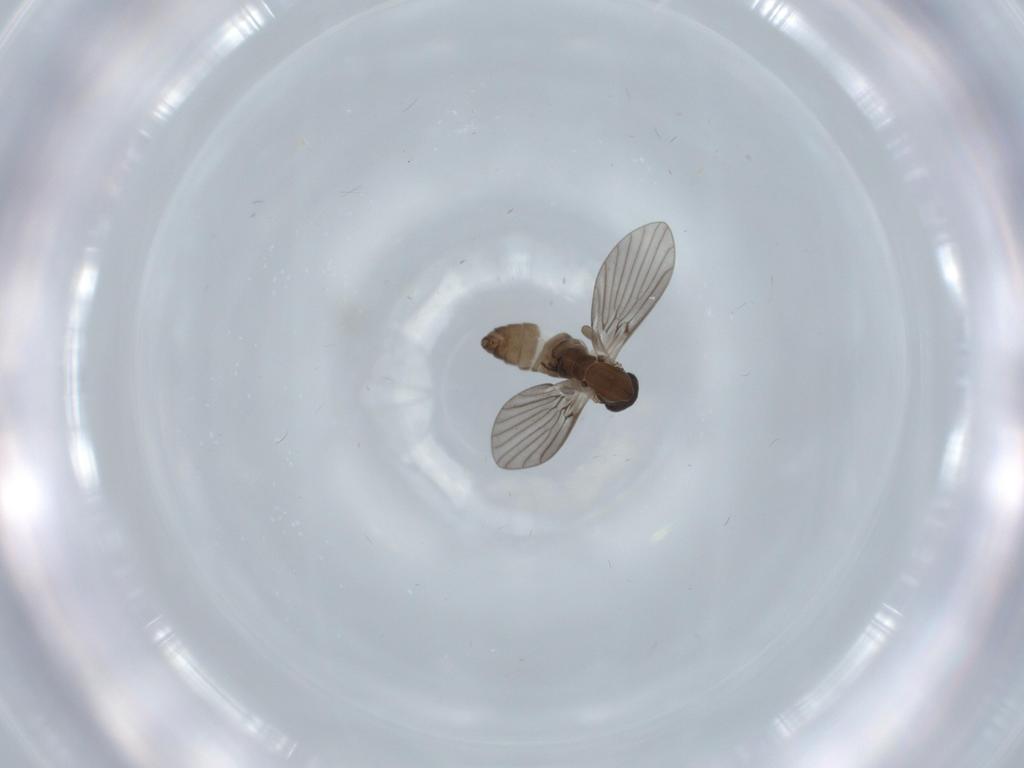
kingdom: Animalia
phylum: Arthropoda
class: Insecta
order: Diptera
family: Psychodidae
